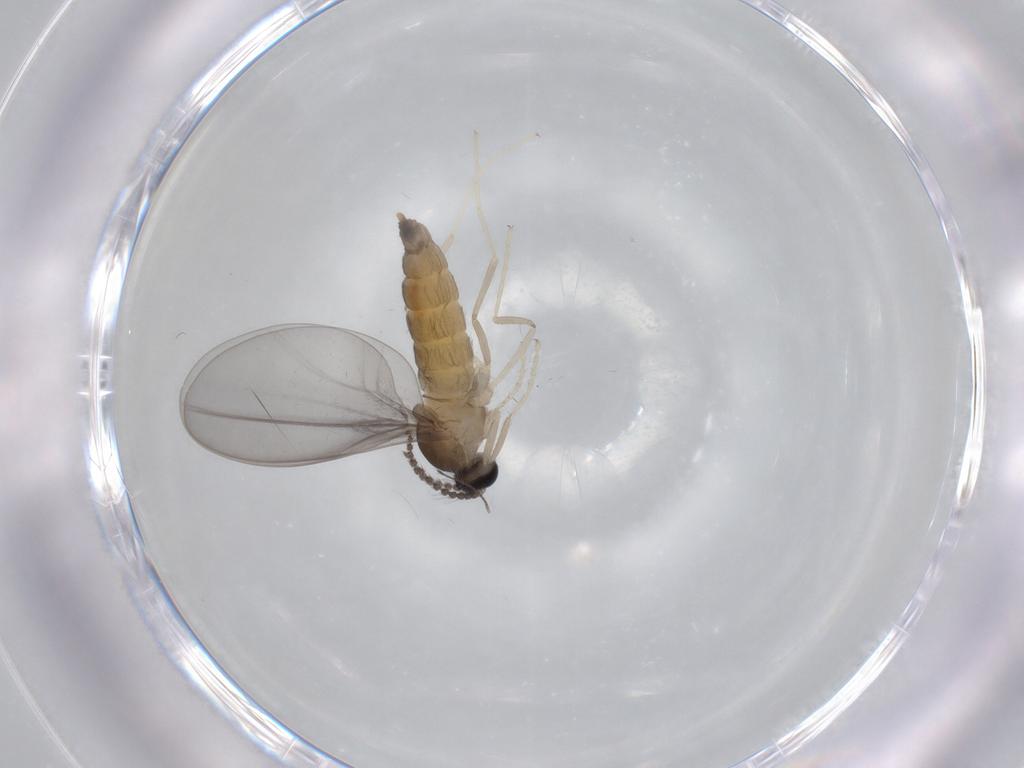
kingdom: Animalia
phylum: Arthropoda
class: Insecta
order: Diptera
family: Cecidomyiidae
